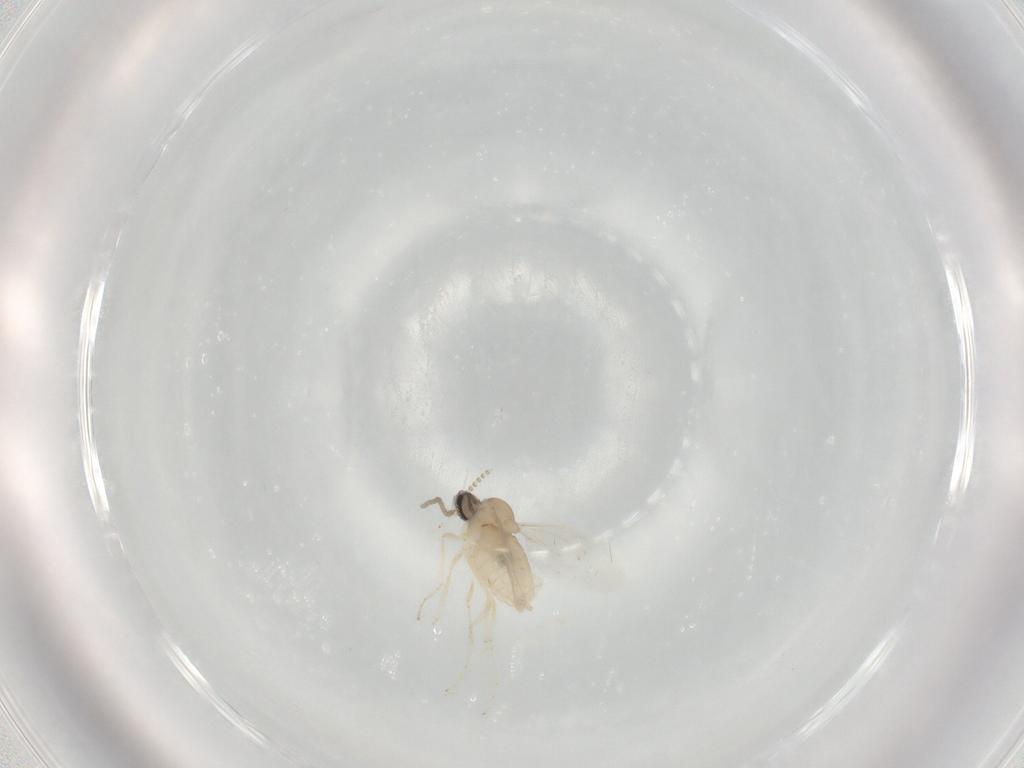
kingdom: Animalia
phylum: Arthropoda
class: Insecta
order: Diptera
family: Cecidomyiidae
